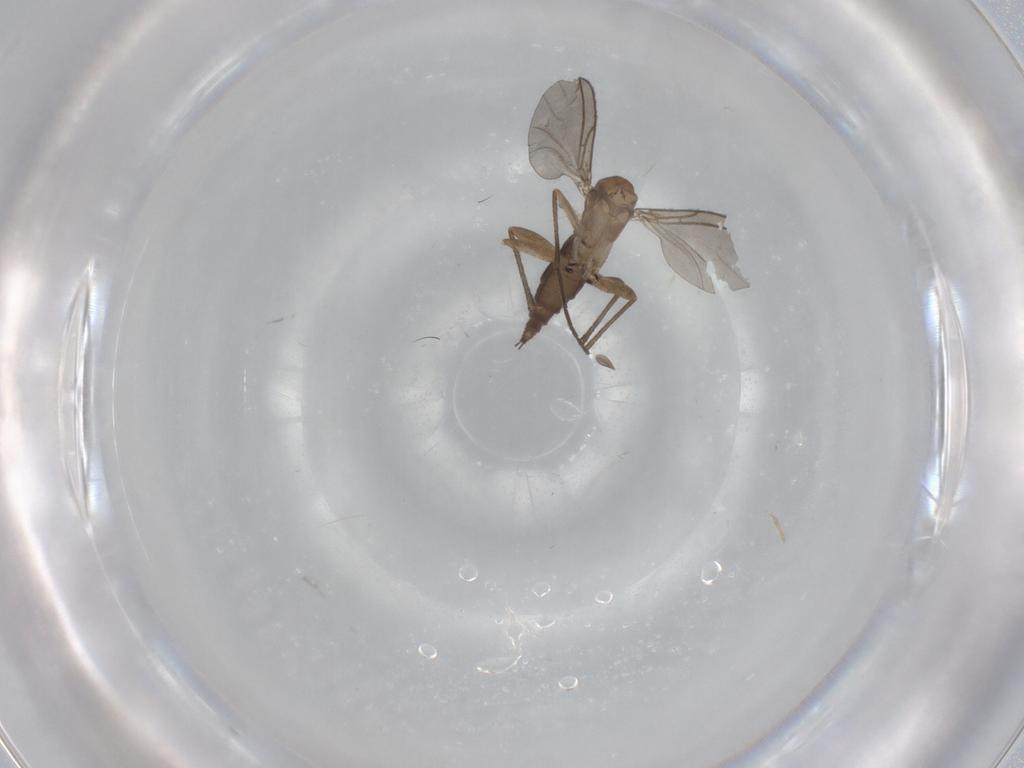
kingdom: Animalia
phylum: Arthropoda
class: Insecta
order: Diptera
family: Sciaridae
